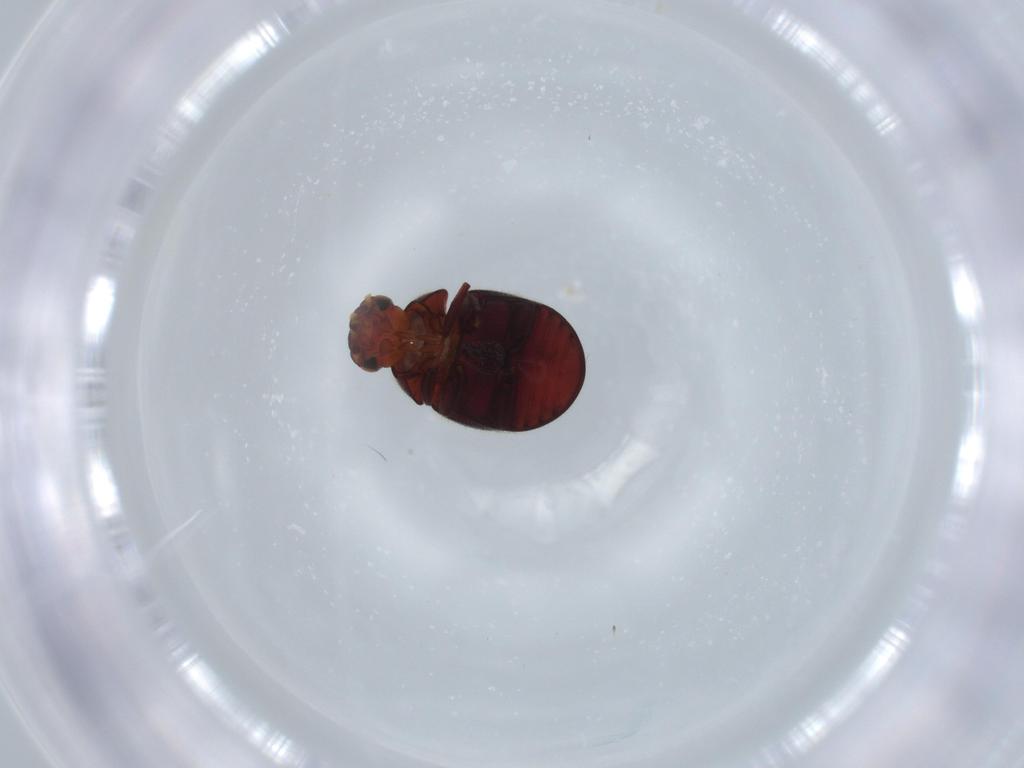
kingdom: Animalia
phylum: Arthropoda
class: Insecta
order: Coleoptera
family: Ptinidae
